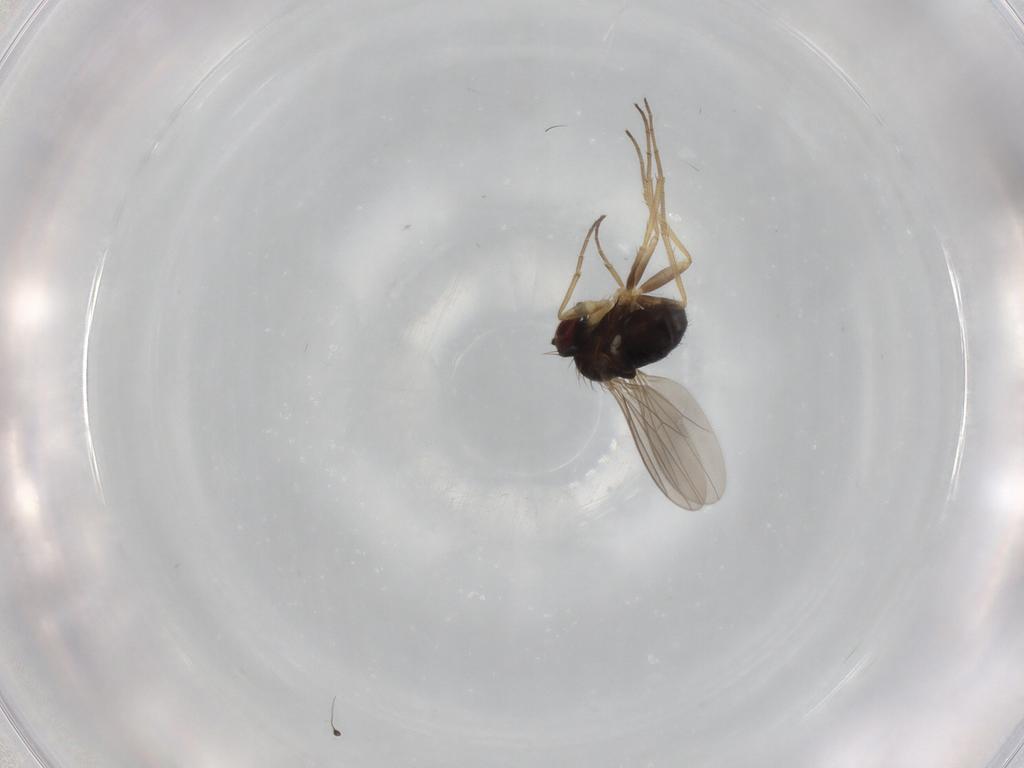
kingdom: Animalia
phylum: Arthropoda
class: Insecta
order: Diptera
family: Dolichopodidae
